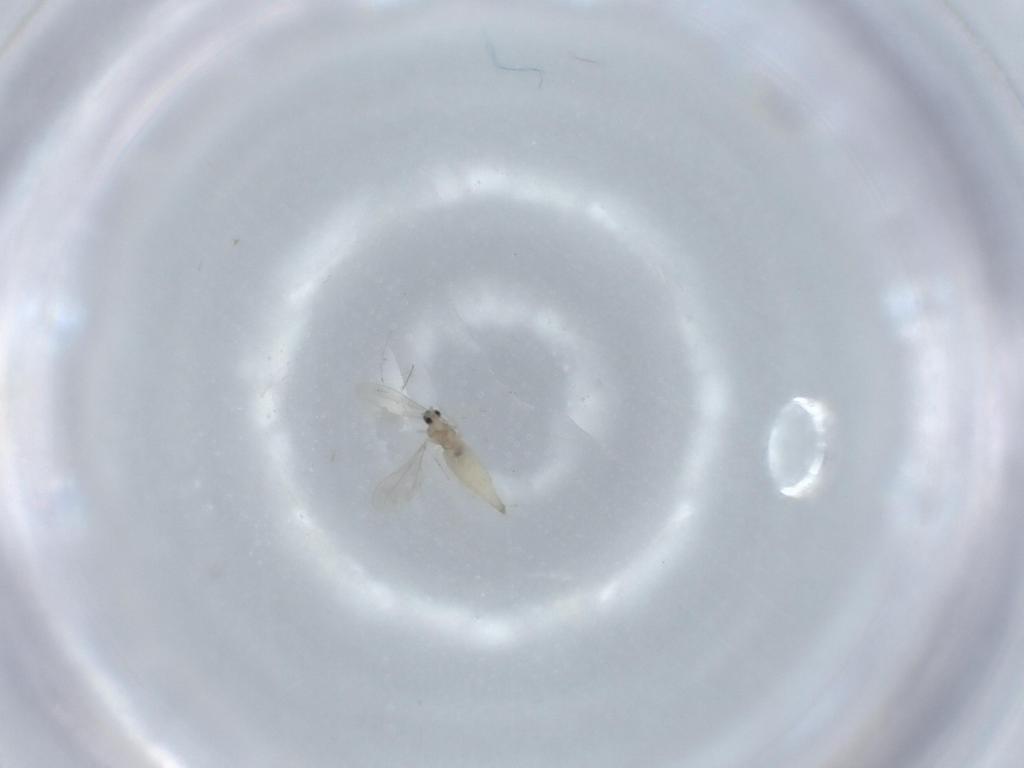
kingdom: Animalia
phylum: Arthropoda
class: Insecta
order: Diptera
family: Cecidomyiidae
